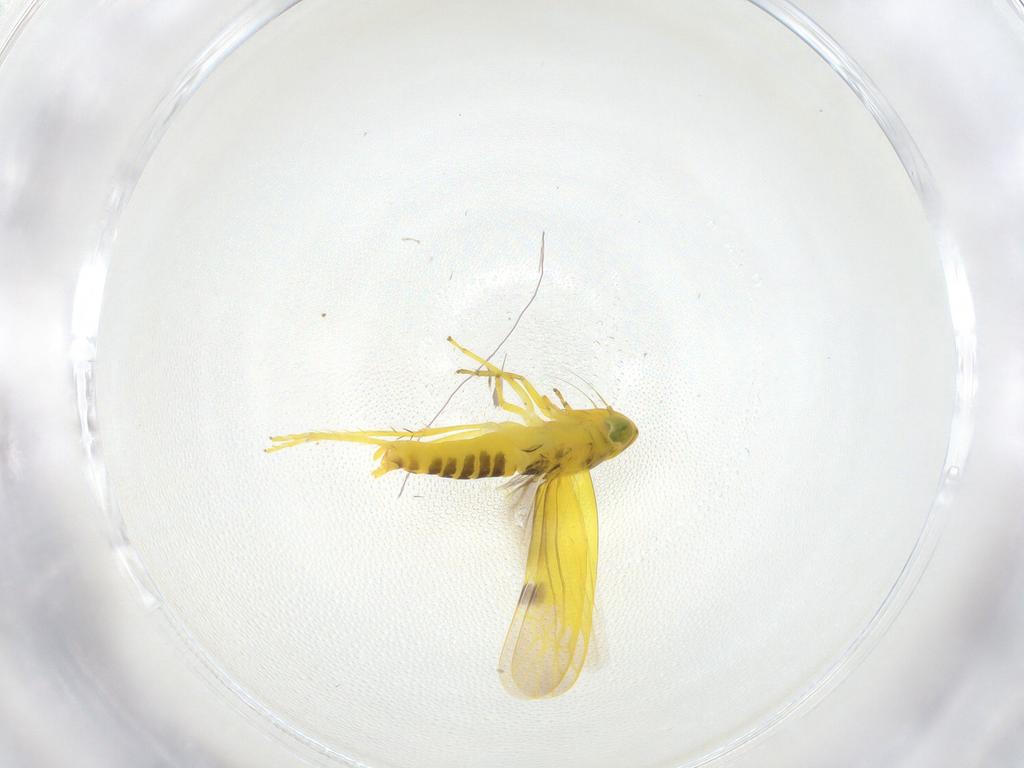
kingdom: Animalia
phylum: Arthropoda
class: Insecta
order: Hemiptera
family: Cicadellidae
